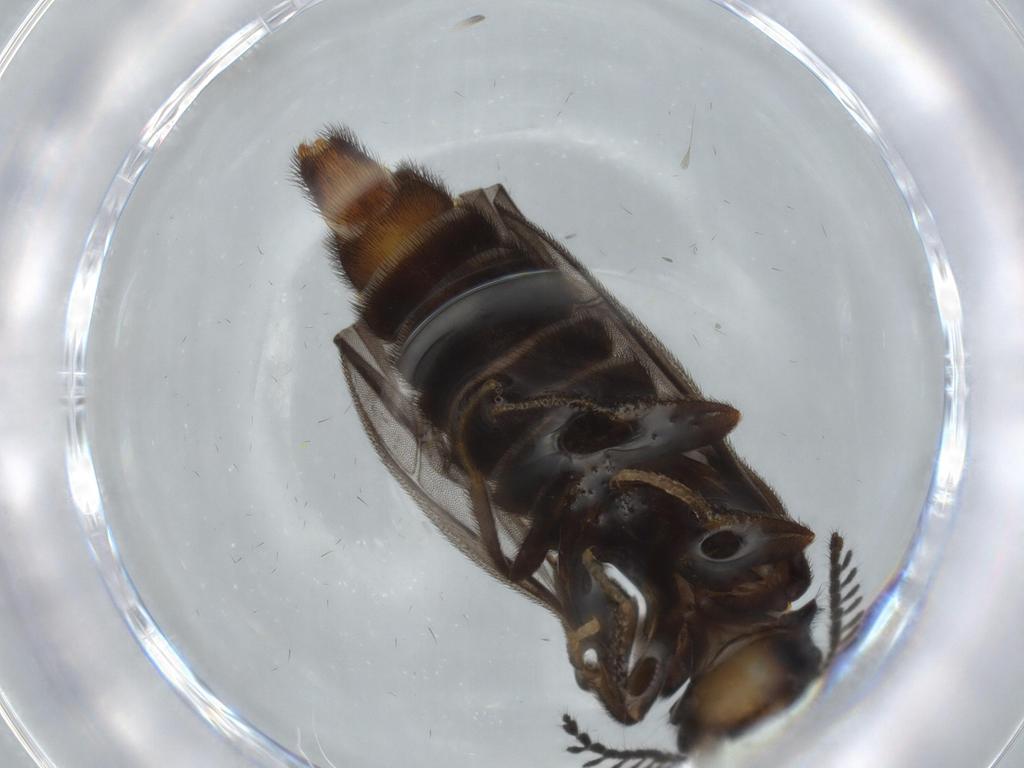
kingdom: Animalia
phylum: Arthropoda
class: Insecta
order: Coleoptera
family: Phengodidae
